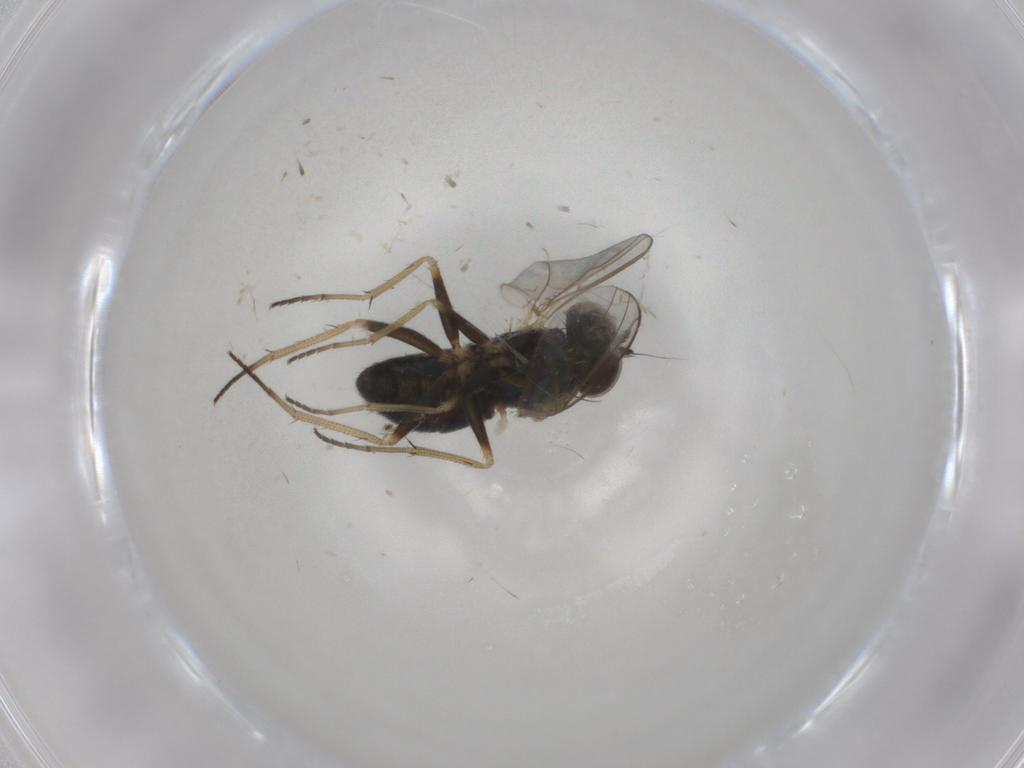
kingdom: Animalia
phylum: Arthropoda
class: Insecta
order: Diptera
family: Dolichopodidae
